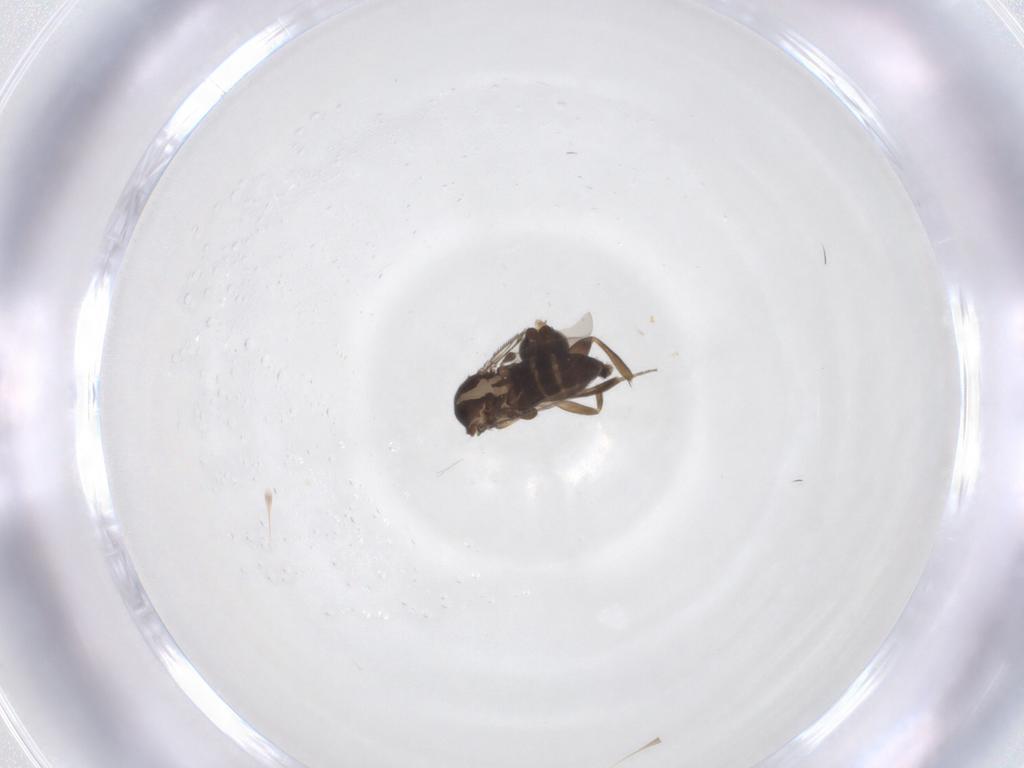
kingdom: Animalia
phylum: Arthropoda
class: Insecta
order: Diptera
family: Phoridae
